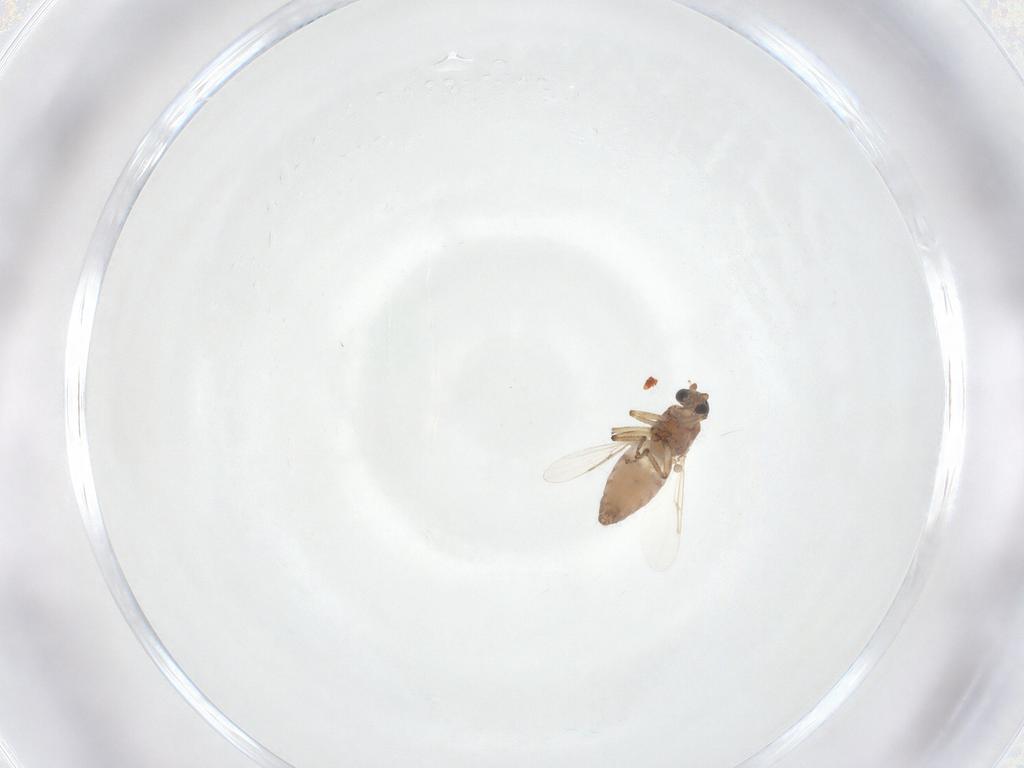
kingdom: Animalia
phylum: Arthropoda
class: Insecta
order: Diptera
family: Ceratopogonidae
